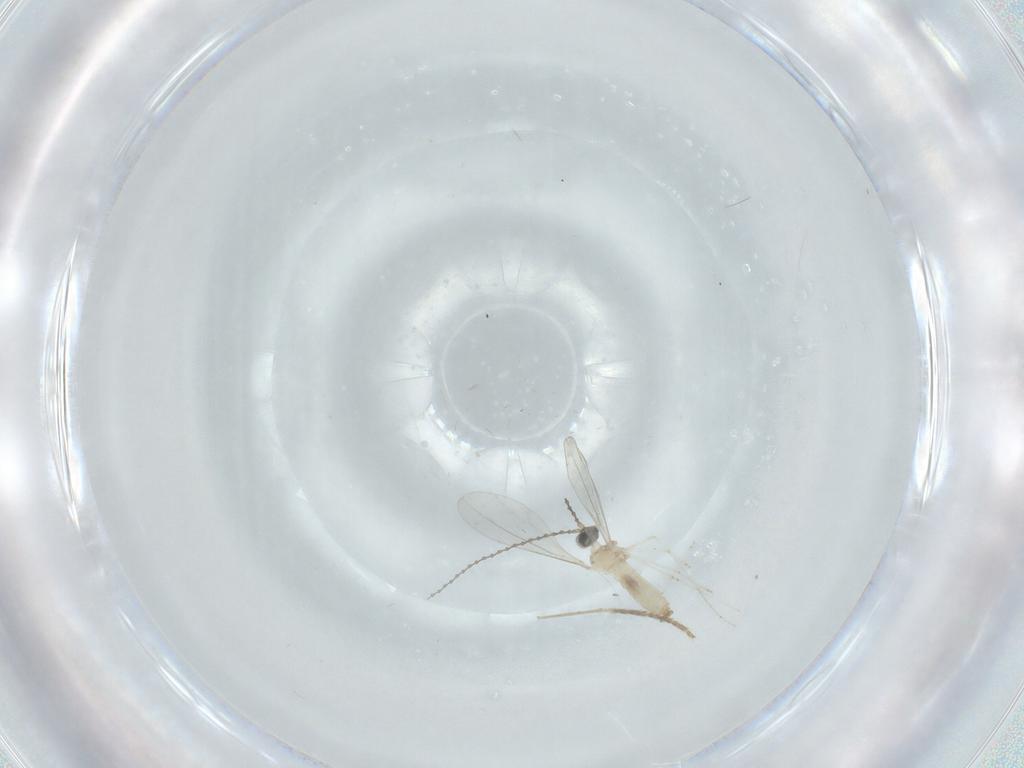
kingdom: Animalia
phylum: Arthropoda
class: Insecta
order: Diptera
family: Cecidomyiidae
